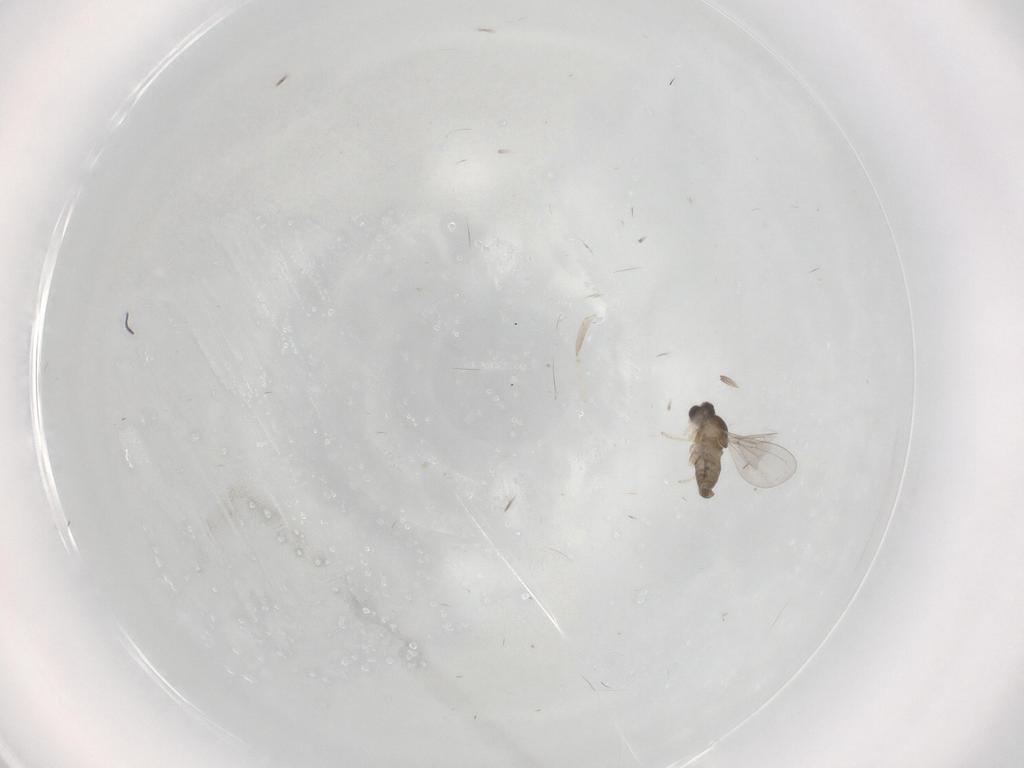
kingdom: Animalia
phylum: Arthropoda
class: Insecta
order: Diptera
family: Cecidomyiidae
